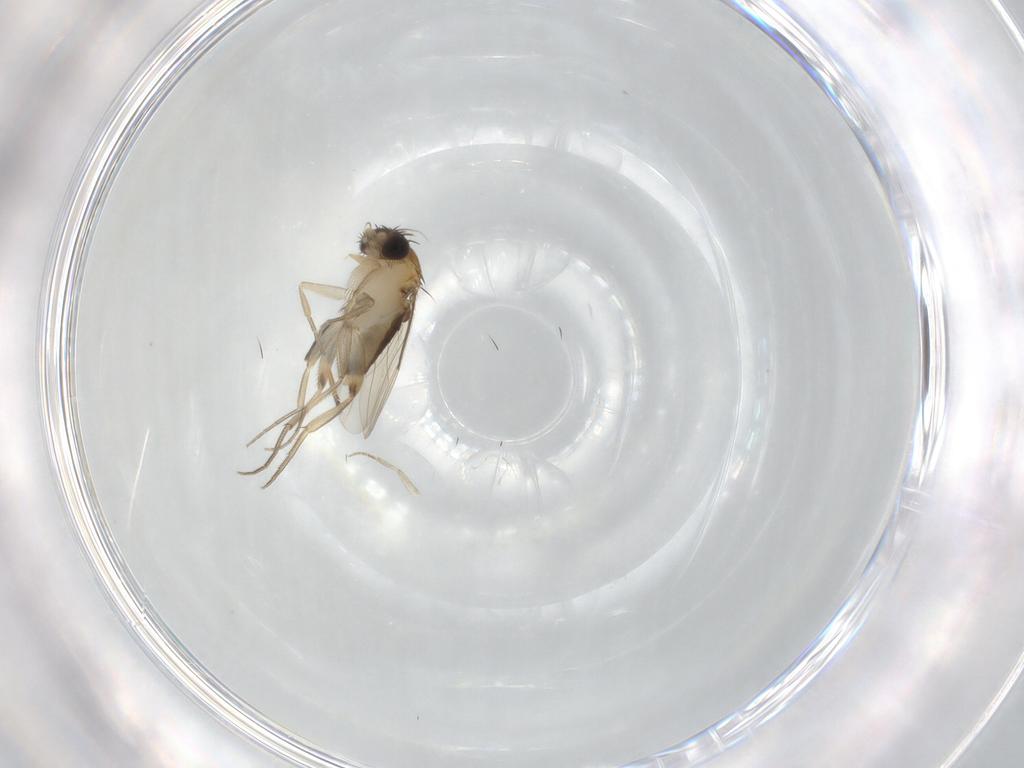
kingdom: Animalia
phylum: Arthropoda
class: Insecta
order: Diptera
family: Phoridae
